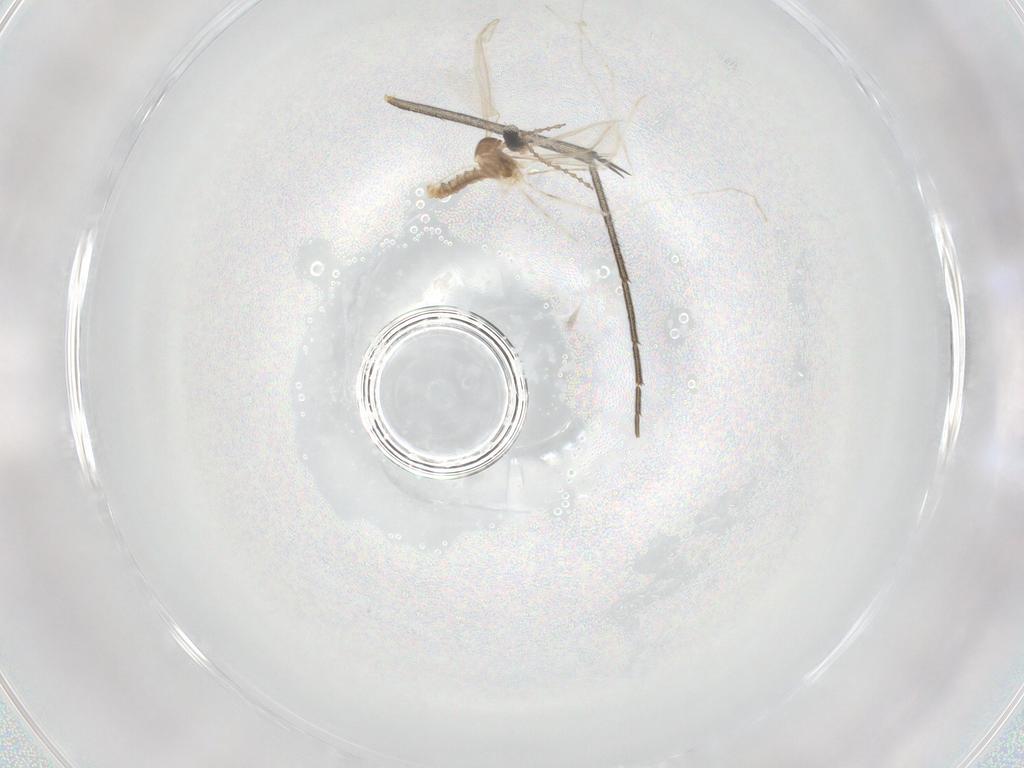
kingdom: Animalia
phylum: Arthropoda
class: Insecta
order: Diptera
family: Cecidomyiidae
